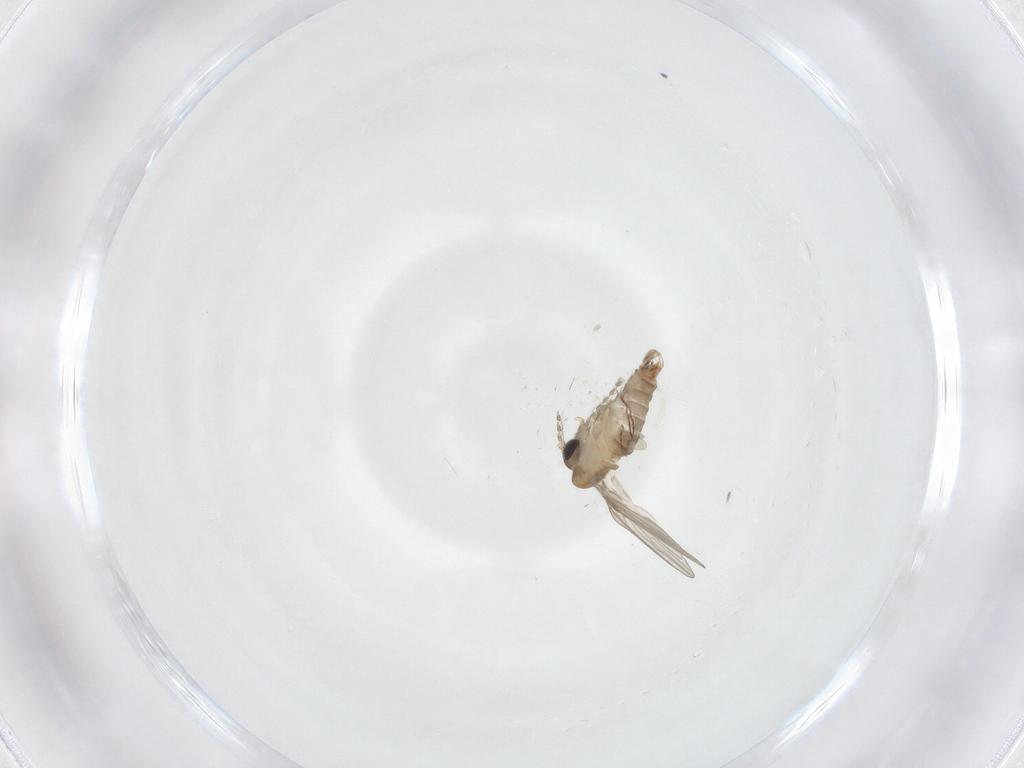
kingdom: Animalia
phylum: Arthropoda
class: Insecta
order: Diptera
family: Psychodidae
